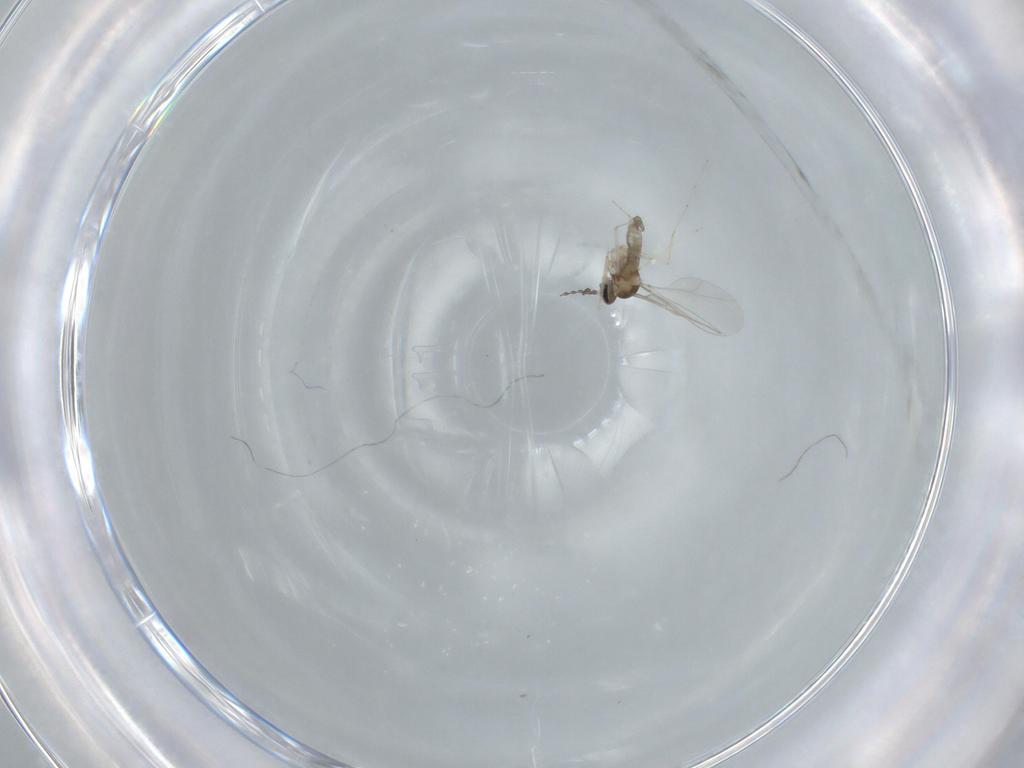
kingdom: Animalia
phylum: Arthropoda
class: Insecta
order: Diptera
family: Cecidomyiidae
